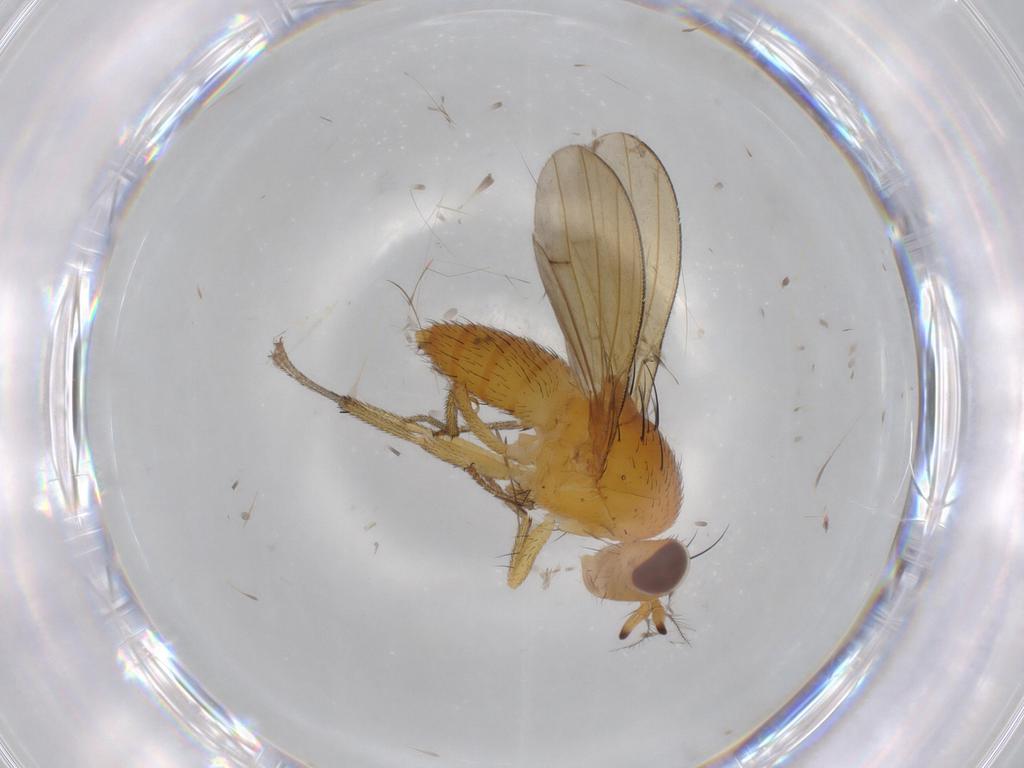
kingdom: Animalia
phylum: Arthropoda
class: Insecta
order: Diptera
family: Lauxaniidae
